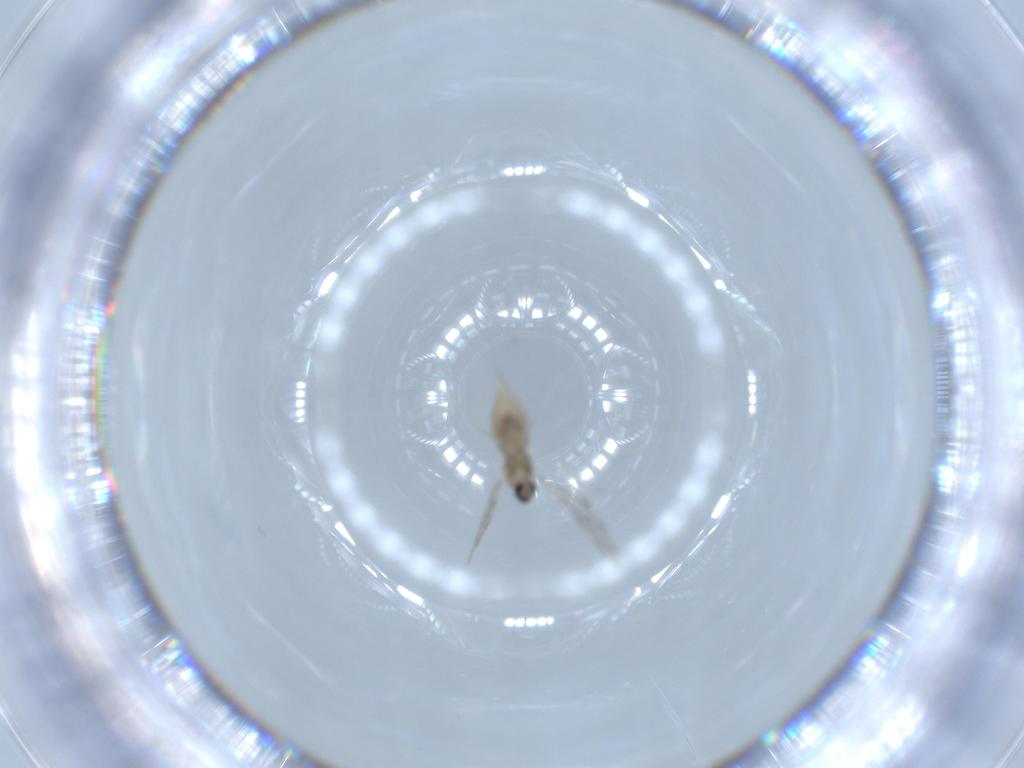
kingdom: Animalia
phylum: Arthropoda
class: Insecta
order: Diptera
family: Cecidomyiidae
